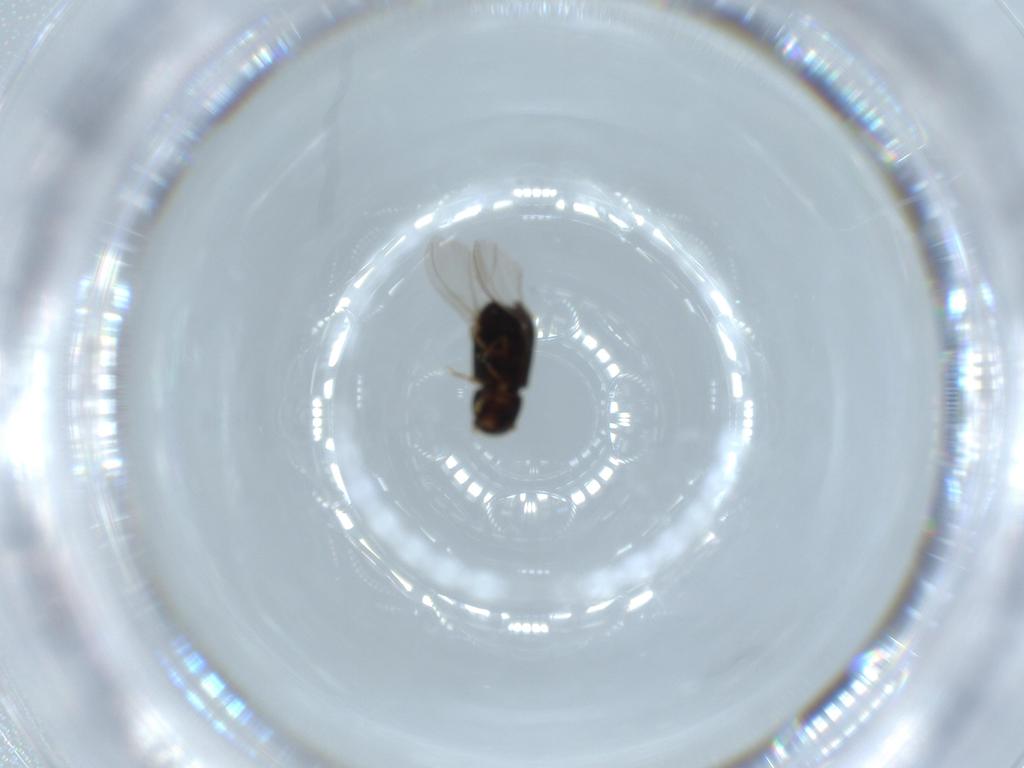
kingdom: Animalia
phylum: Arthropoda
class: Insecta
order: Coleoptera
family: Curculionidae
